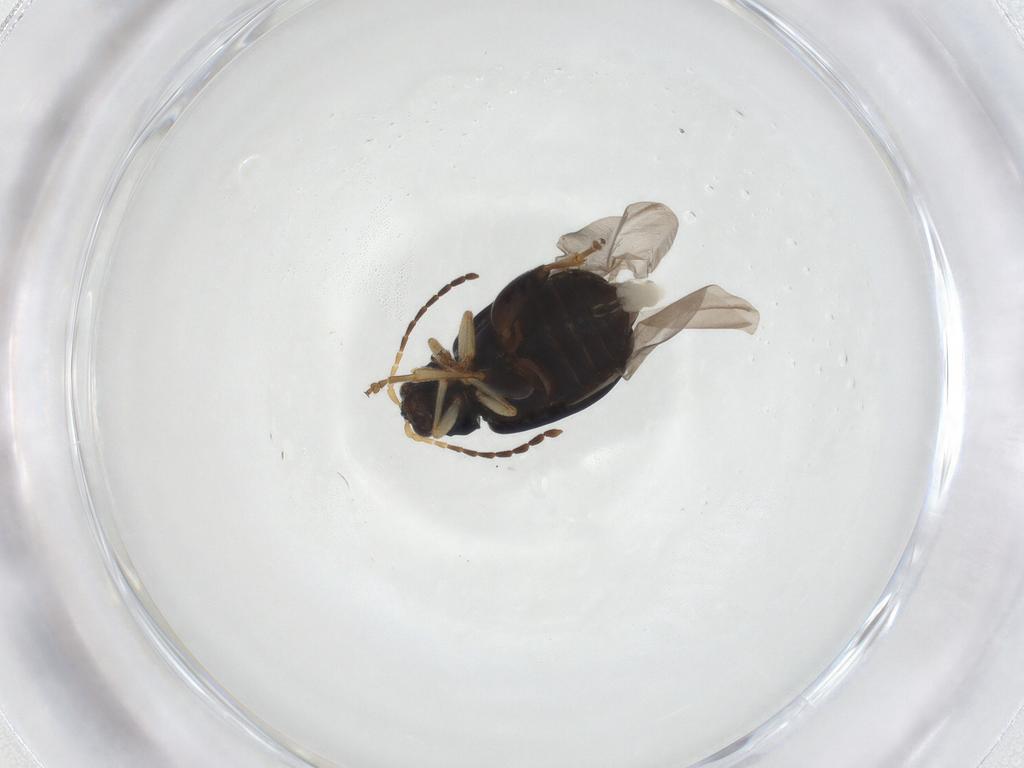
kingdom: Animalia
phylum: Arthropoda
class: Insecta
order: Coleoptera
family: Chrysomelidae
